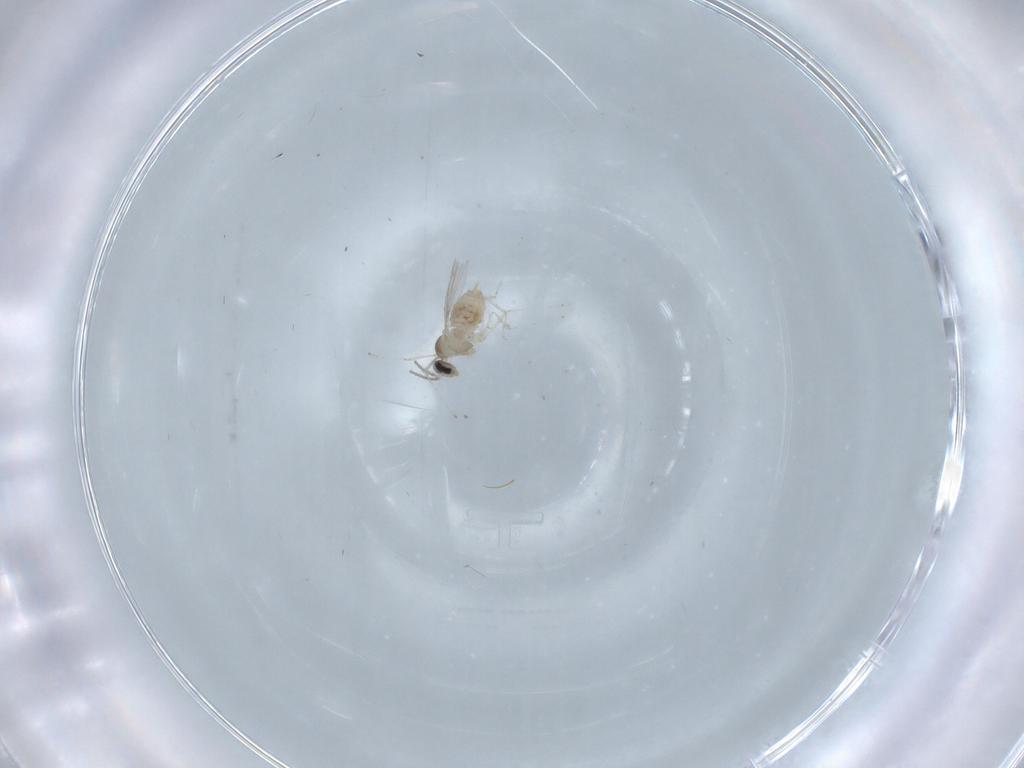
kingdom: Animalia
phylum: Arthropoda
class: Insecta
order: Diptera
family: Cecidomyiidae
